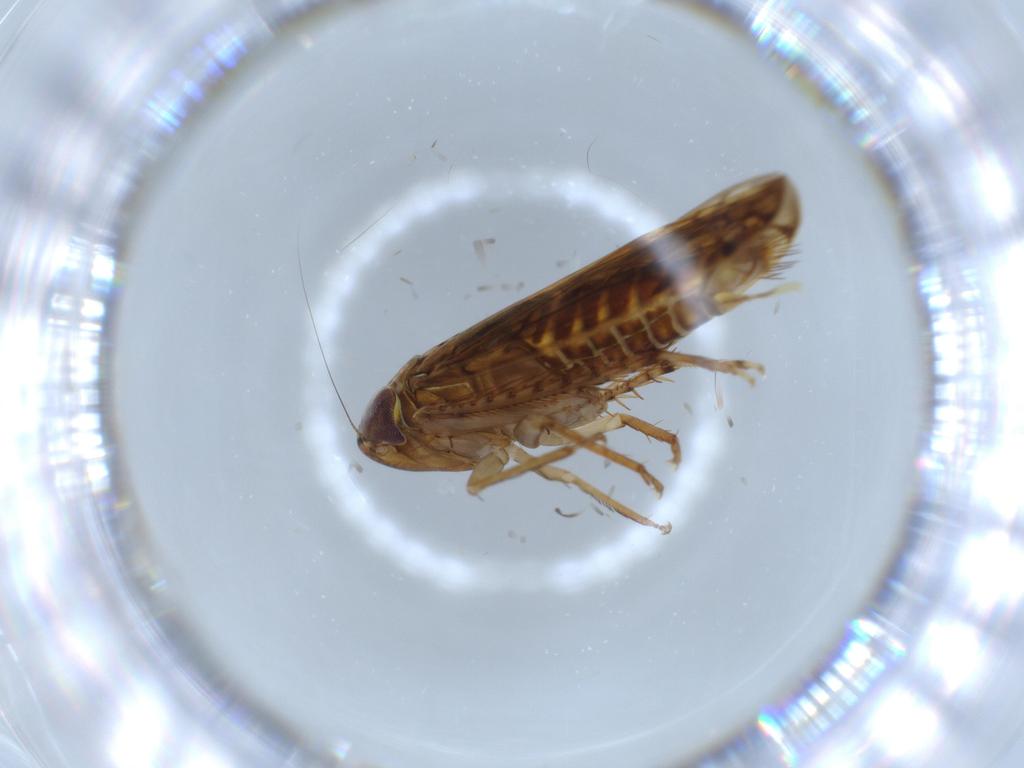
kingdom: Animalia
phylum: Arthropoda
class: Insecta
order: Hemiptera
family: Cicadellidae
